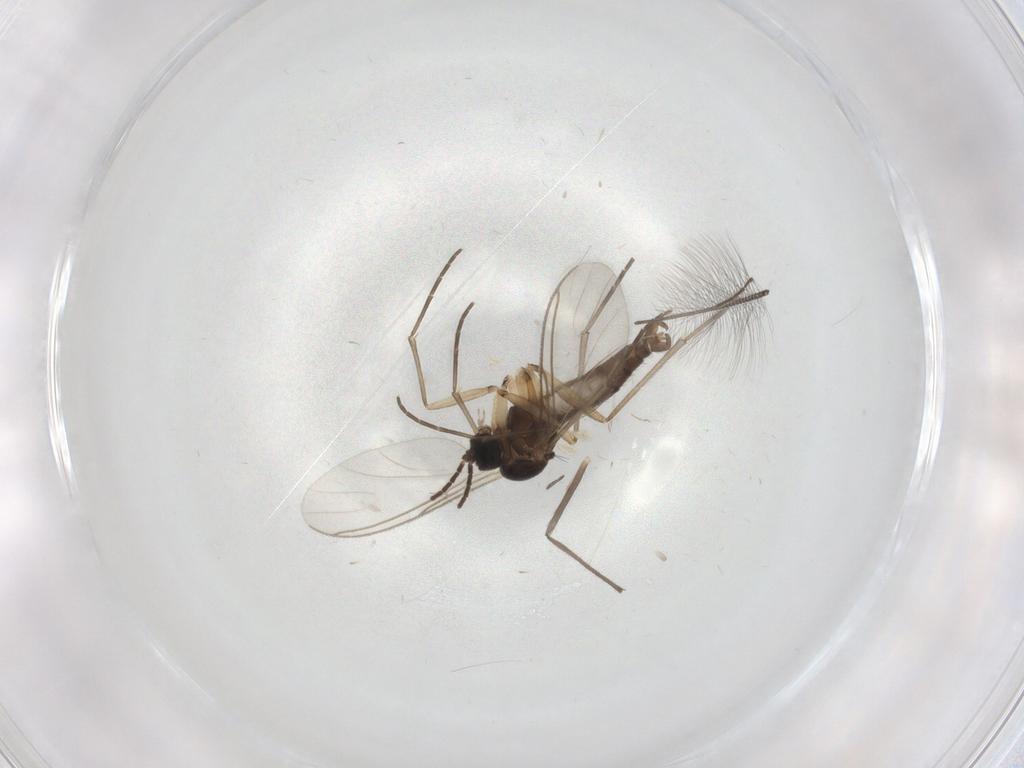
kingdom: Animalia
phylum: Arthropoda
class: Insecta
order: Diptera
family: Sciaridae
